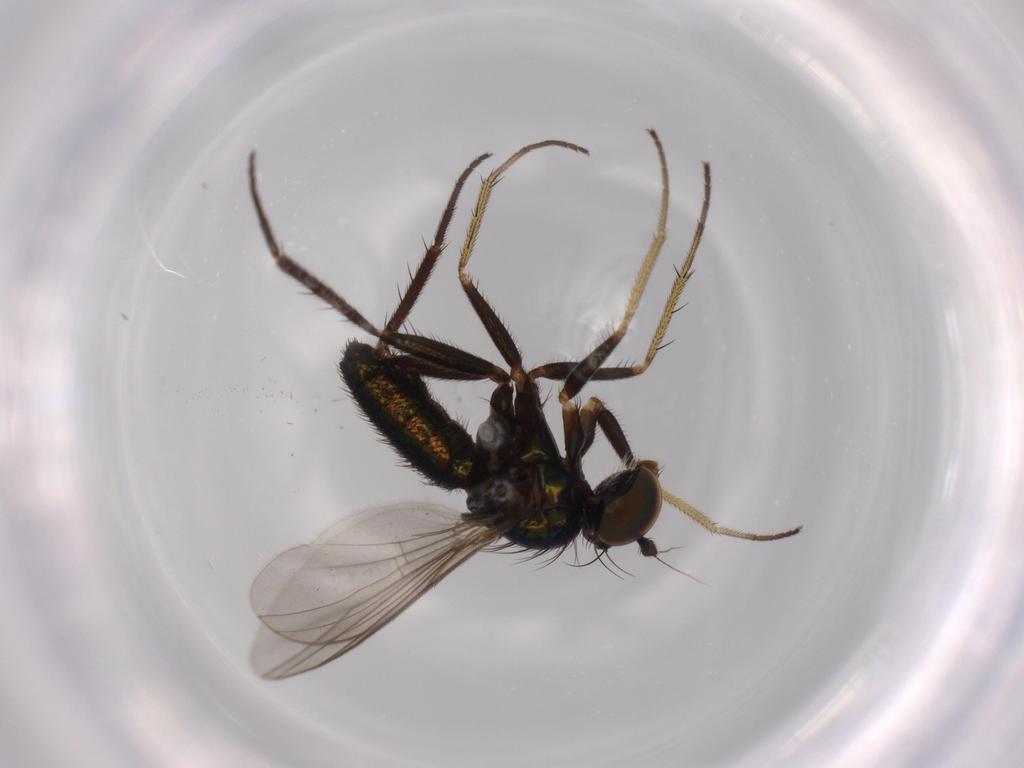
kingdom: Animalia
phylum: Arthropoda
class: Insecta
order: Diptera
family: Dolichopodidae
